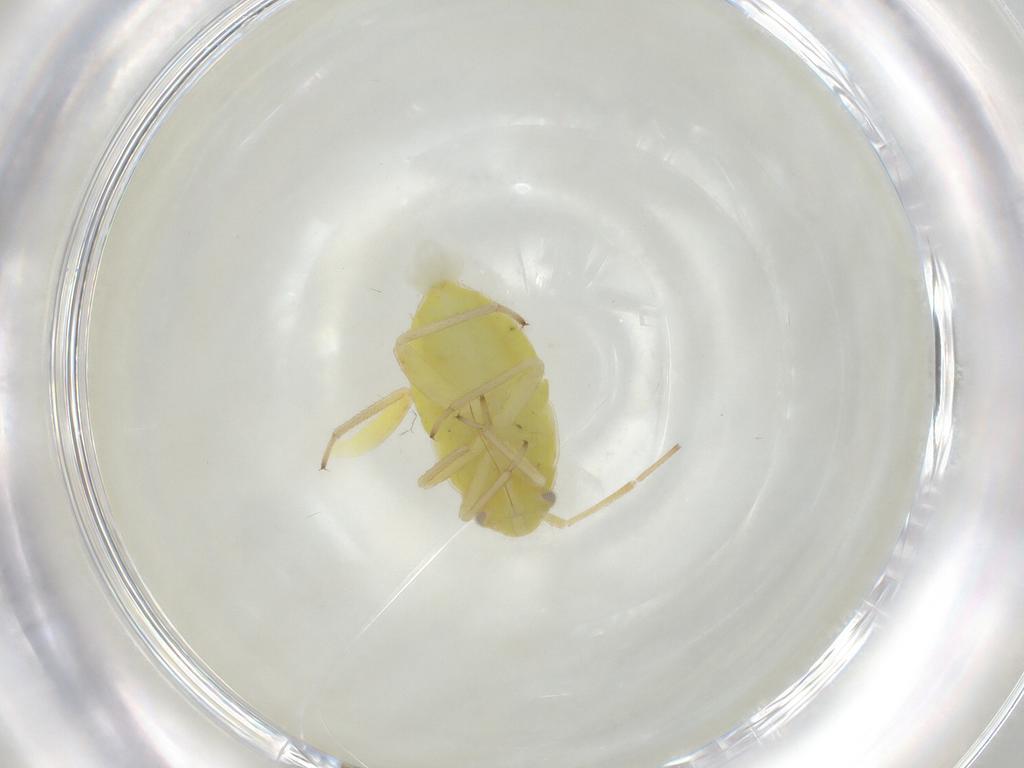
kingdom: Animalia
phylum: Arthropoda
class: Insecta
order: Hemiptera
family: Miridae
